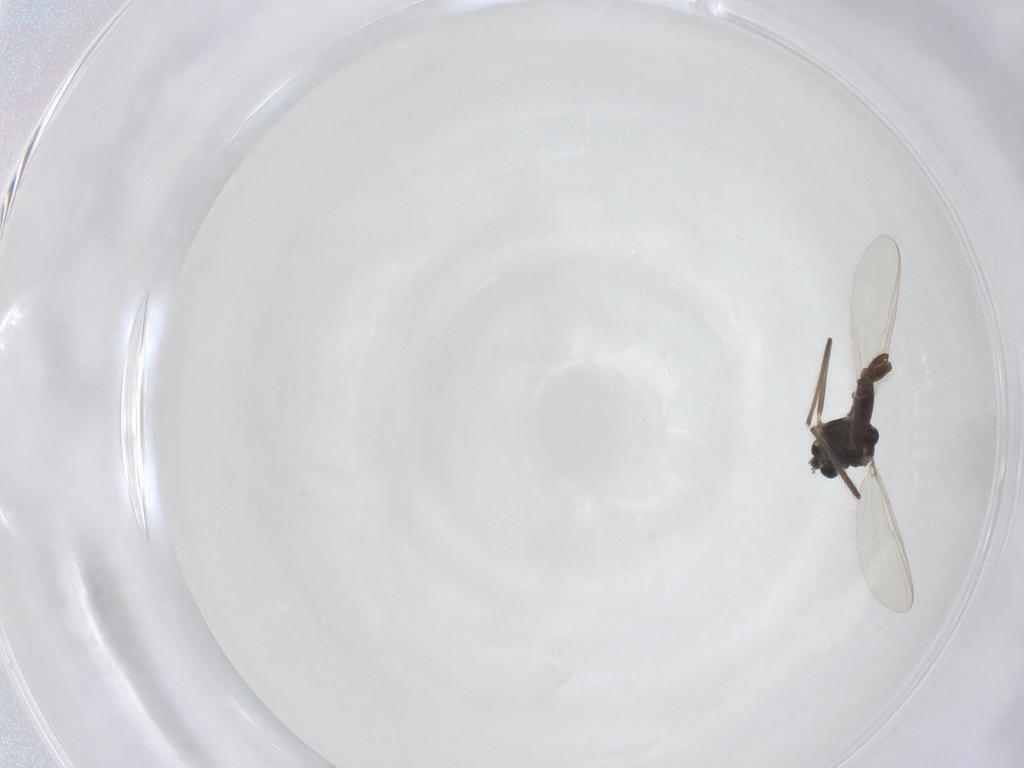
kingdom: Animalia
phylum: Arthropoda
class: Insecta
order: Diptera
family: Chironomidae
